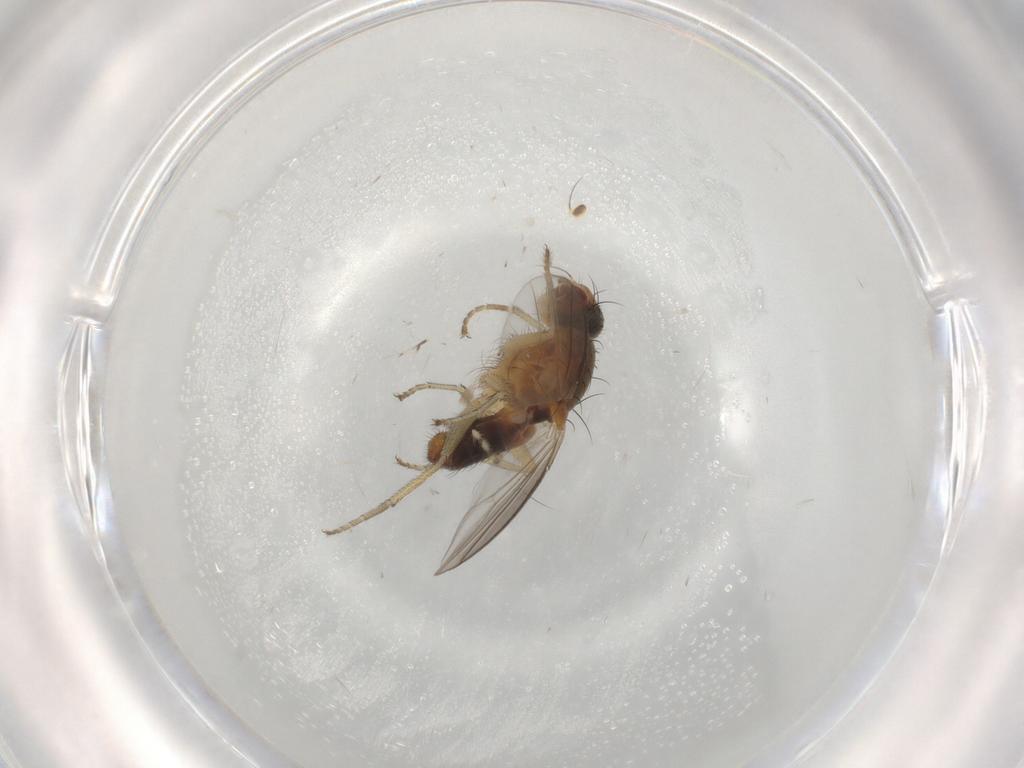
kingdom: Animalia
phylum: Arthropoda
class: Insecta
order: Diptera
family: Heleomyzidae
